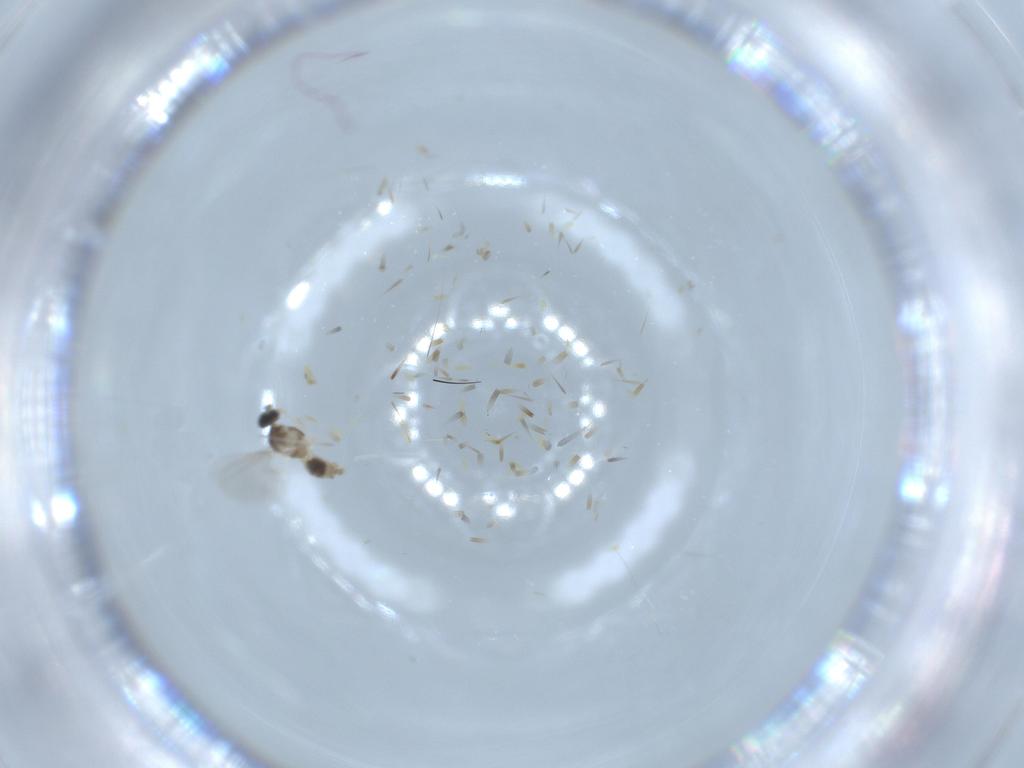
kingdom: Animalia
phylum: Arthropoda
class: Insecta
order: Diptera
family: Cecidomyiidae
